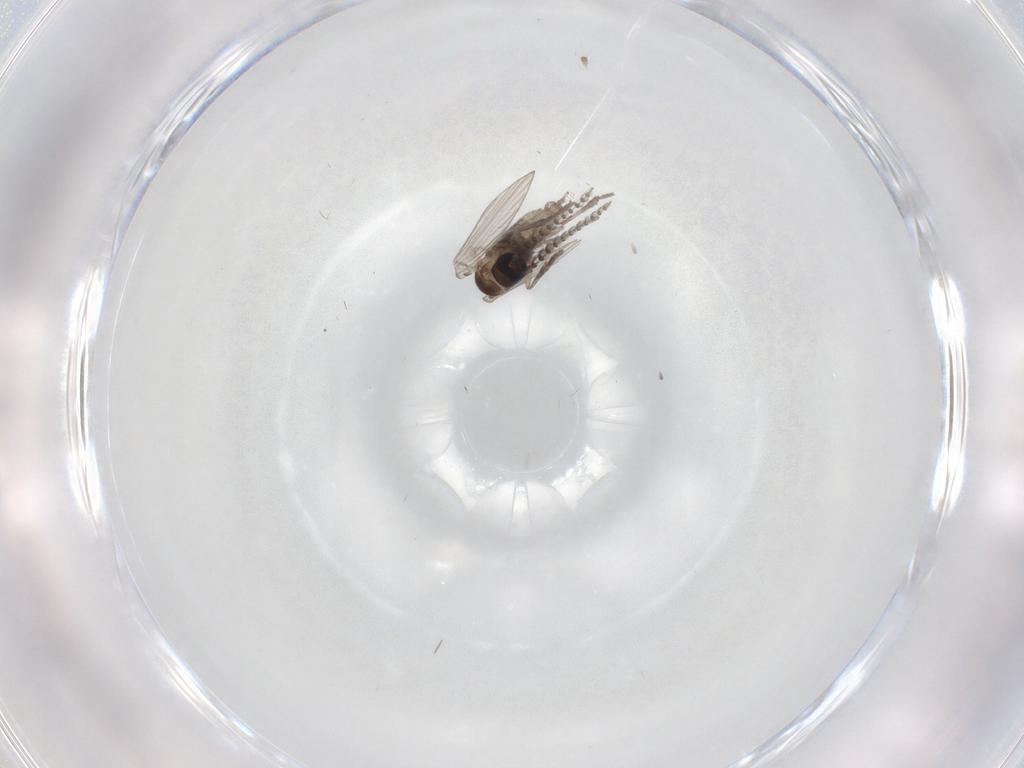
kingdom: Animalia
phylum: Arthropoda
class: Insecta
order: Diptera
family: Psychodidae
